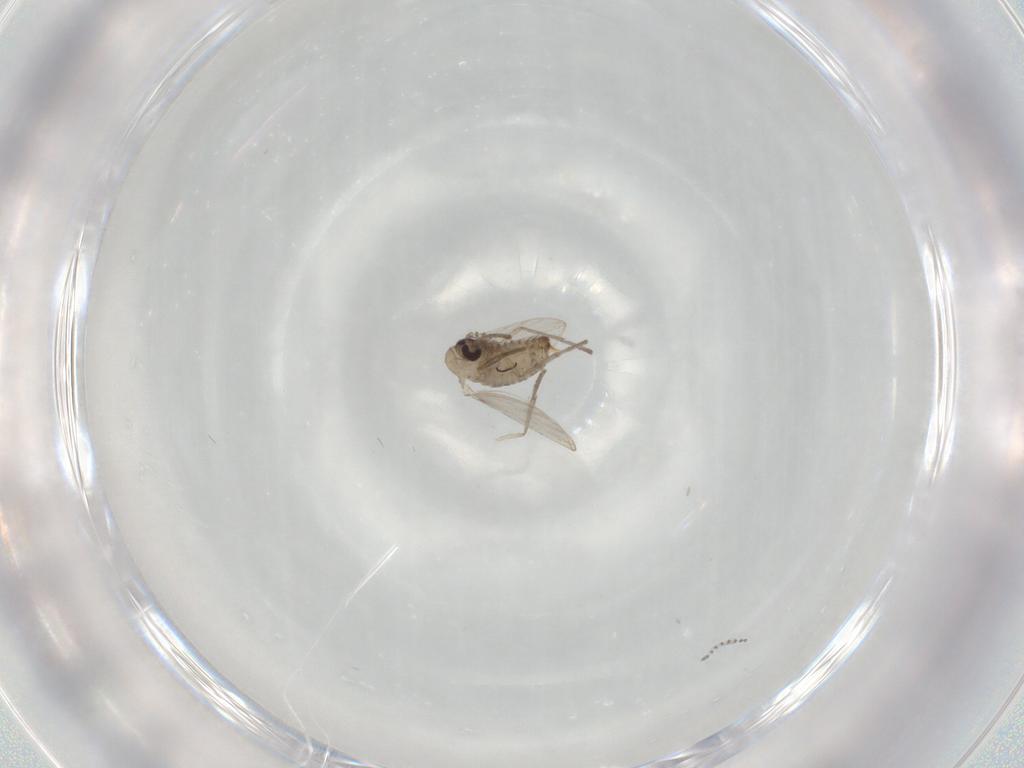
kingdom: Animalia
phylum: Arthropoda
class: Insecta
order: Diptera
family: Psychodidae
